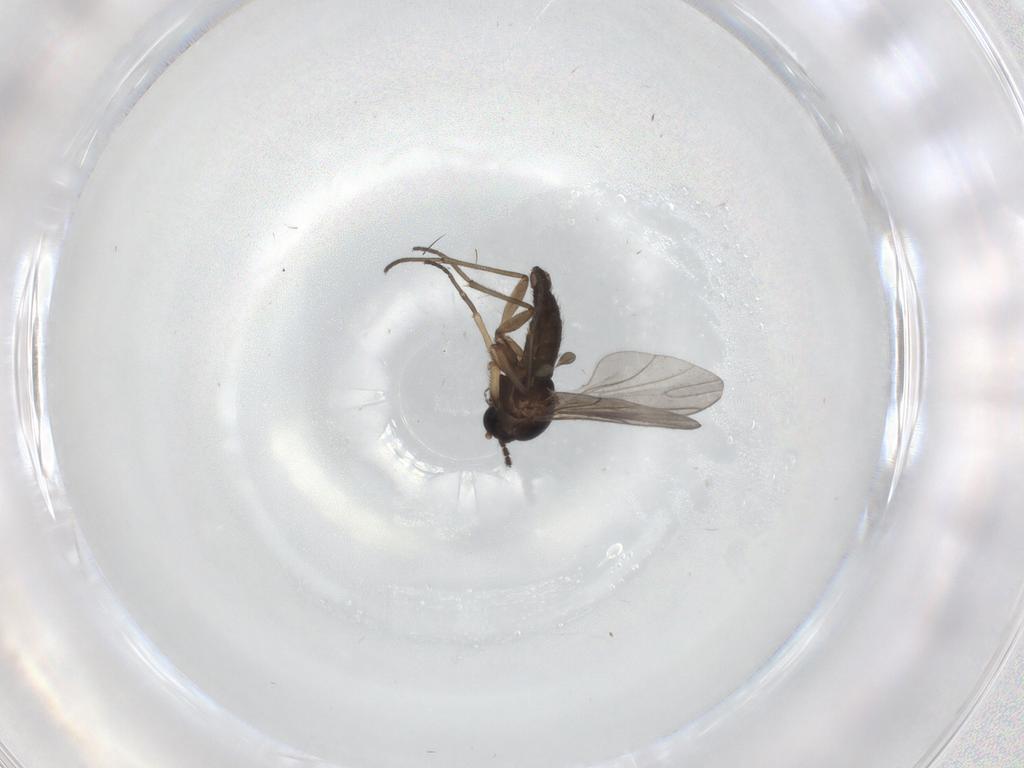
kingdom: Animalia
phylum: Arthropoda
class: Insecta
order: Diptera
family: Sciaridae
